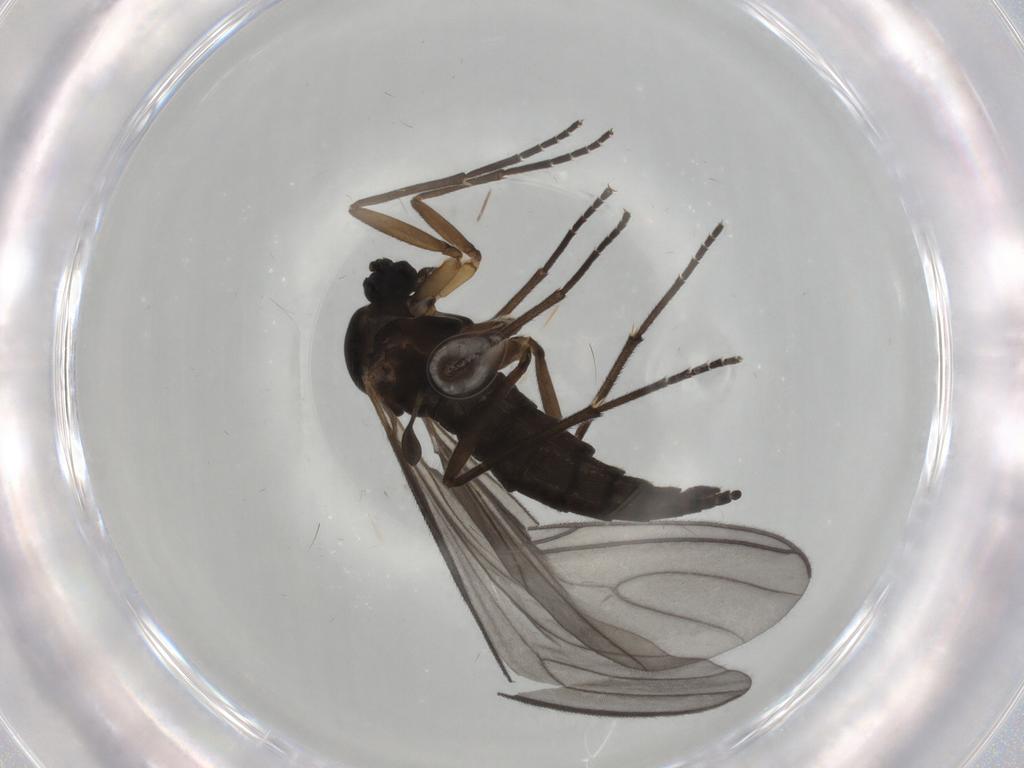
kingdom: Animalia
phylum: Arthropoda
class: Insecta
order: Diptera
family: Sciaridae
